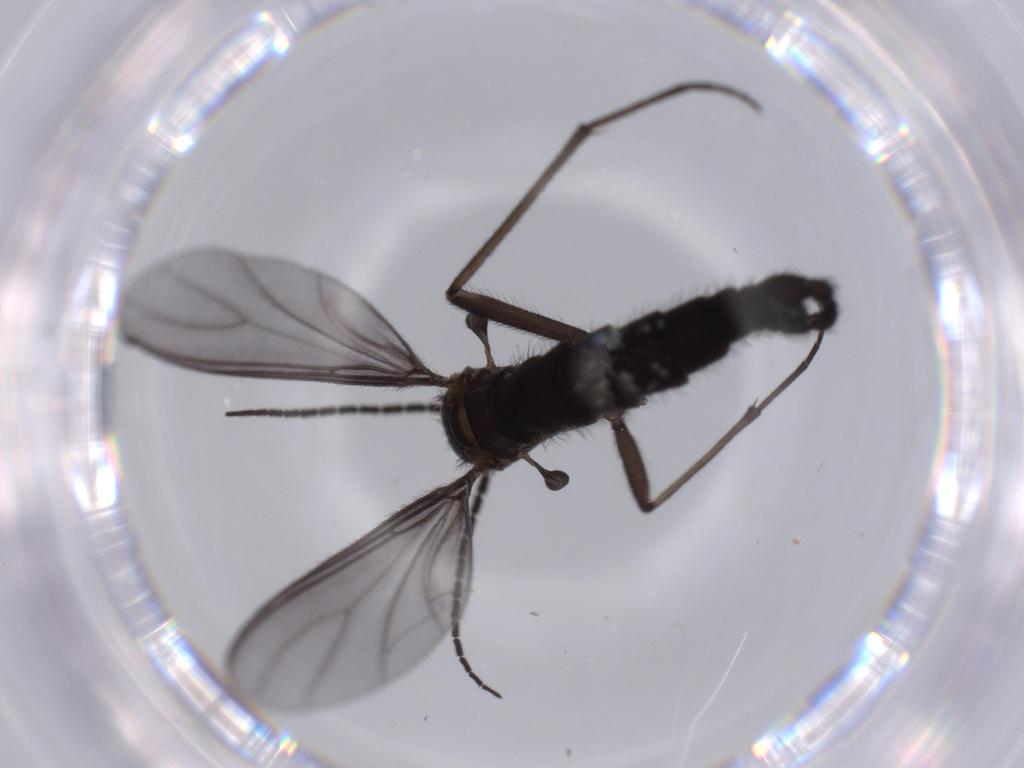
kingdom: Animalia
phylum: Arthropoda
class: Insecta
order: Diptera
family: Cecidomyiidae
